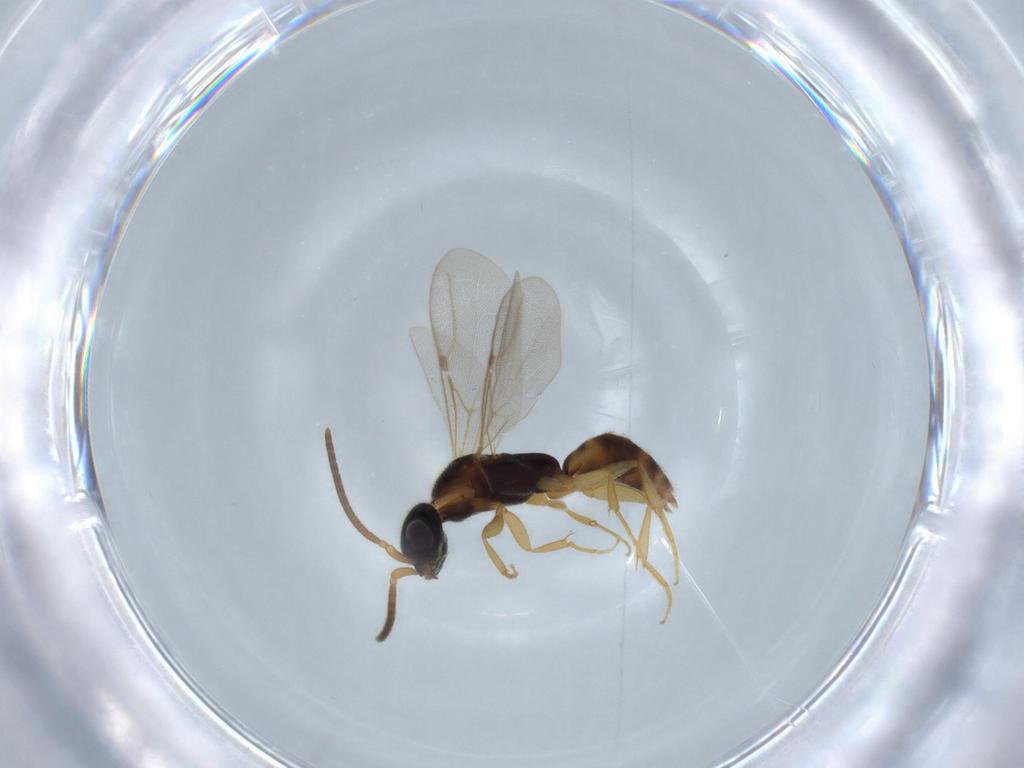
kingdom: Animalia
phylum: Arthropoda
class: Insecta
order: Hymenoptera
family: Bethylidae
